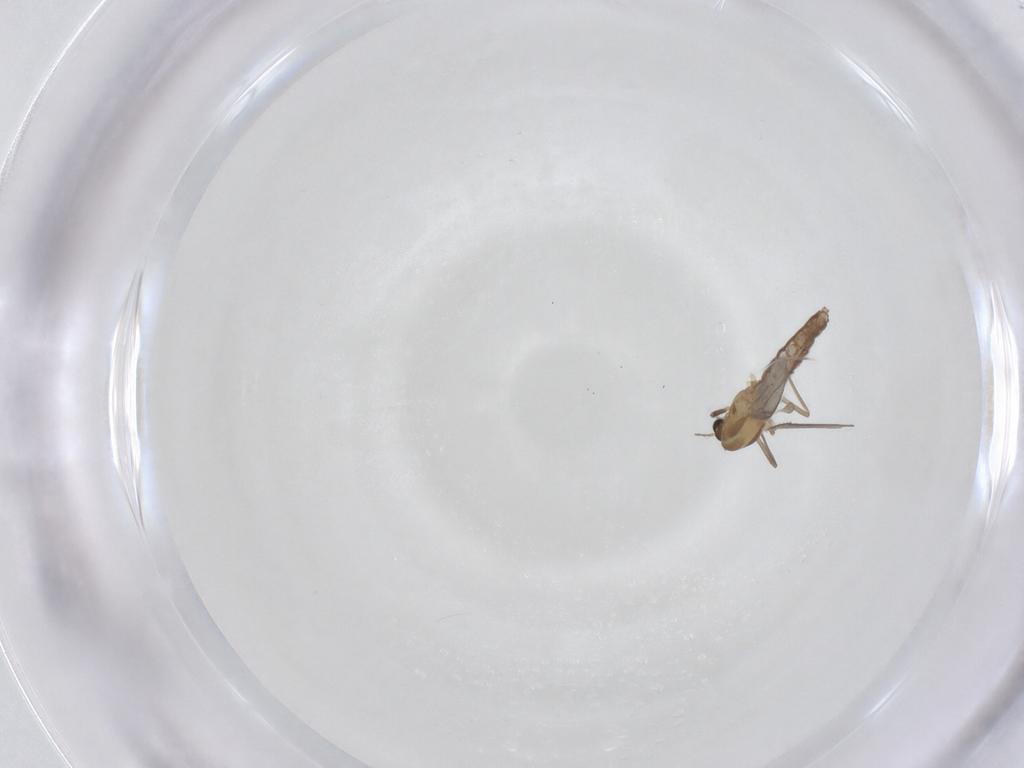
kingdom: Animalia
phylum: Arthropoda
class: Insecta
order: Diptera
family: Chironomidae
